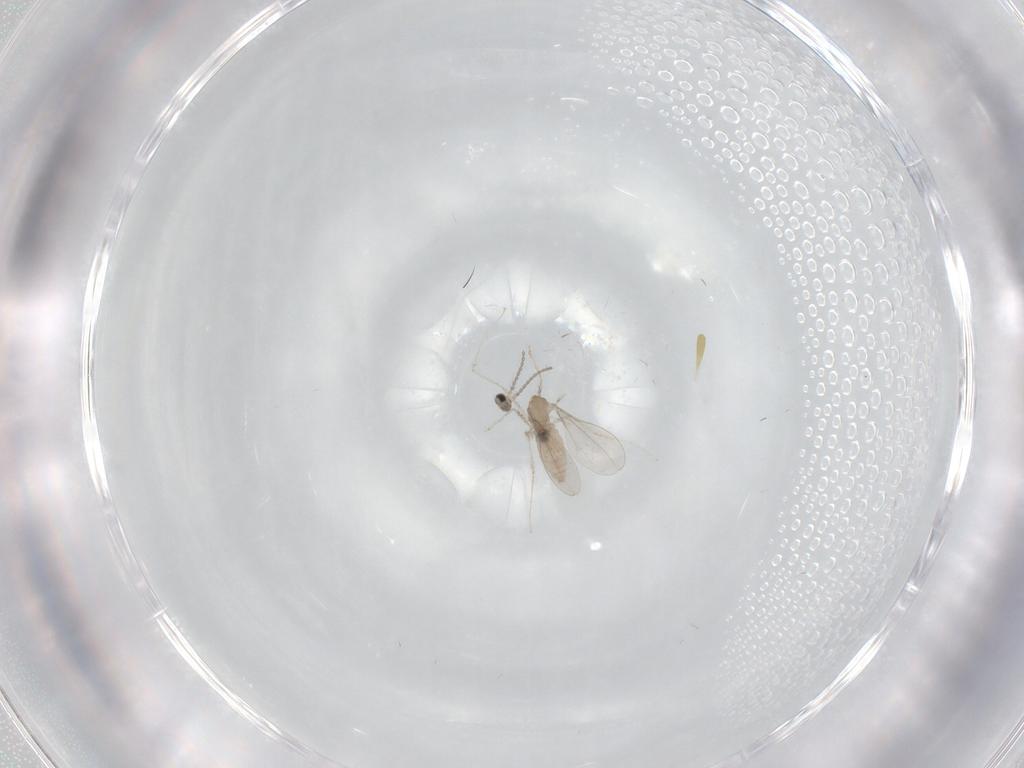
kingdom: Animalia
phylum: Arthropoda
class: Insecta
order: Diptera
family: Cecidomyiidae
